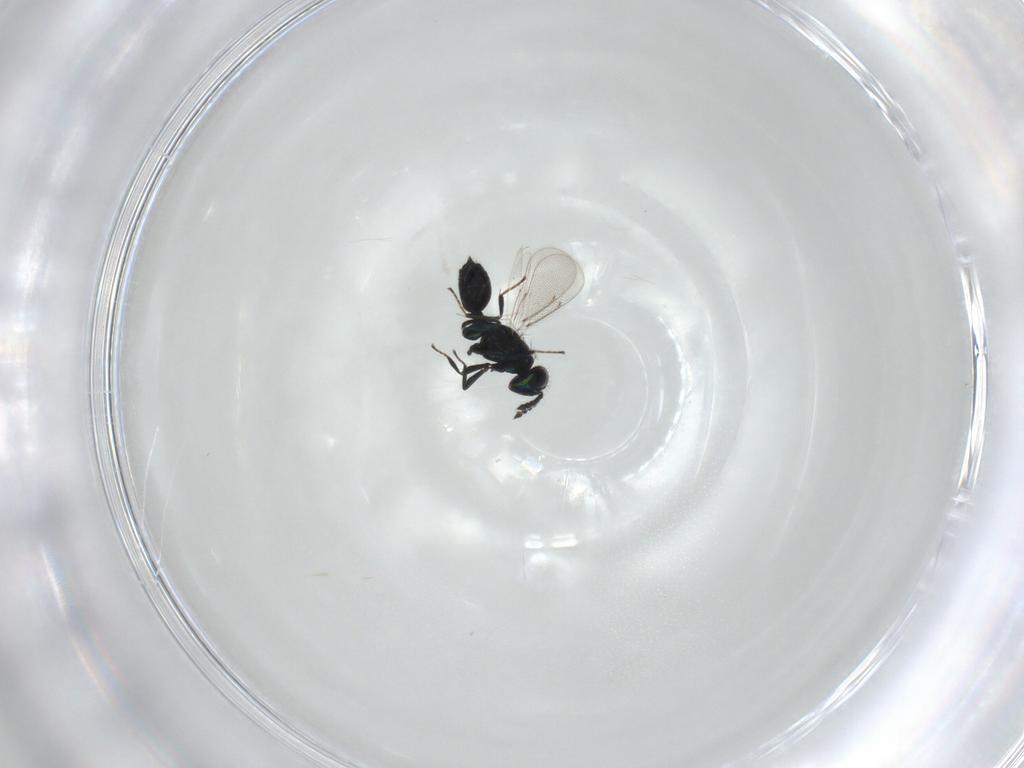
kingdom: Animalia
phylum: Arthropoda
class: Insecta
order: Hymenoptera
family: Eulophidae
